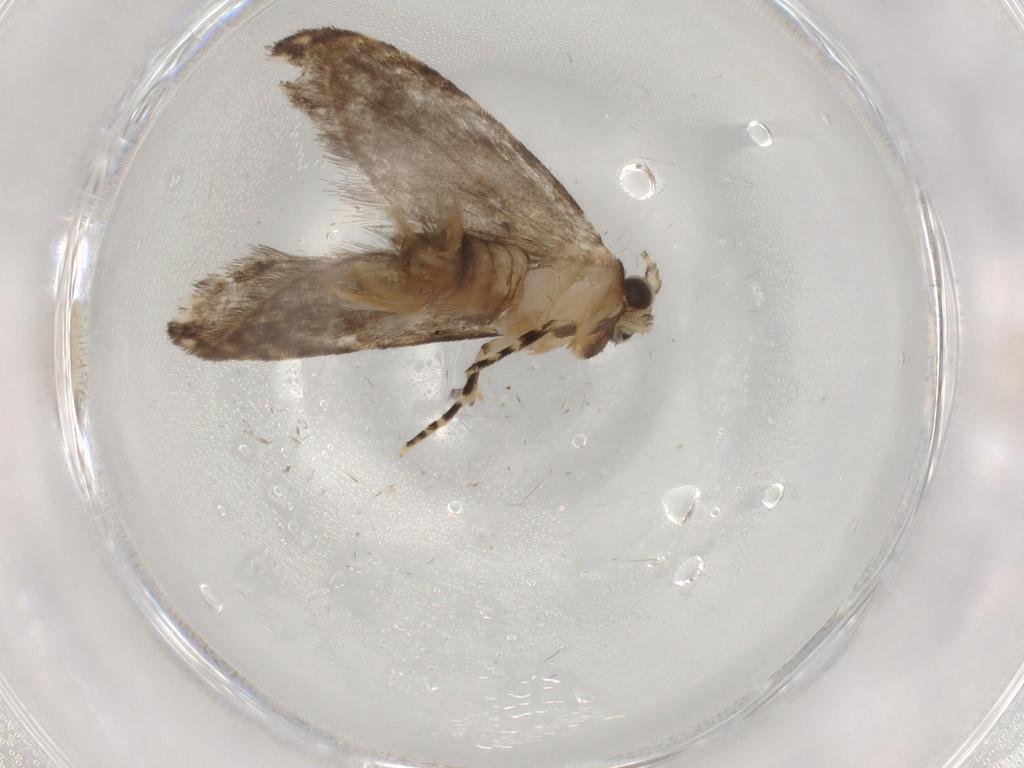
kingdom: Animalia
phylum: Arthropoda
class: Insecta
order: Lepidoptera
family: Tineidae
